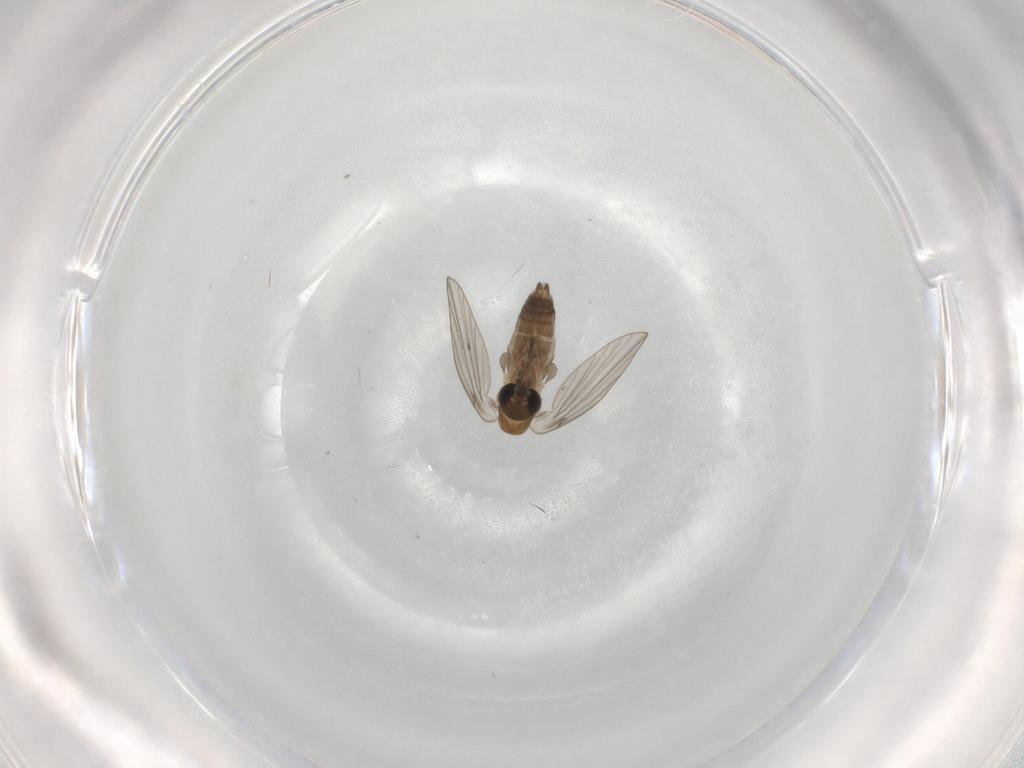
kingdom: Animalia
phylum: Arthropoda
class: Insecta
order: Diptera
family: Psychodidae
